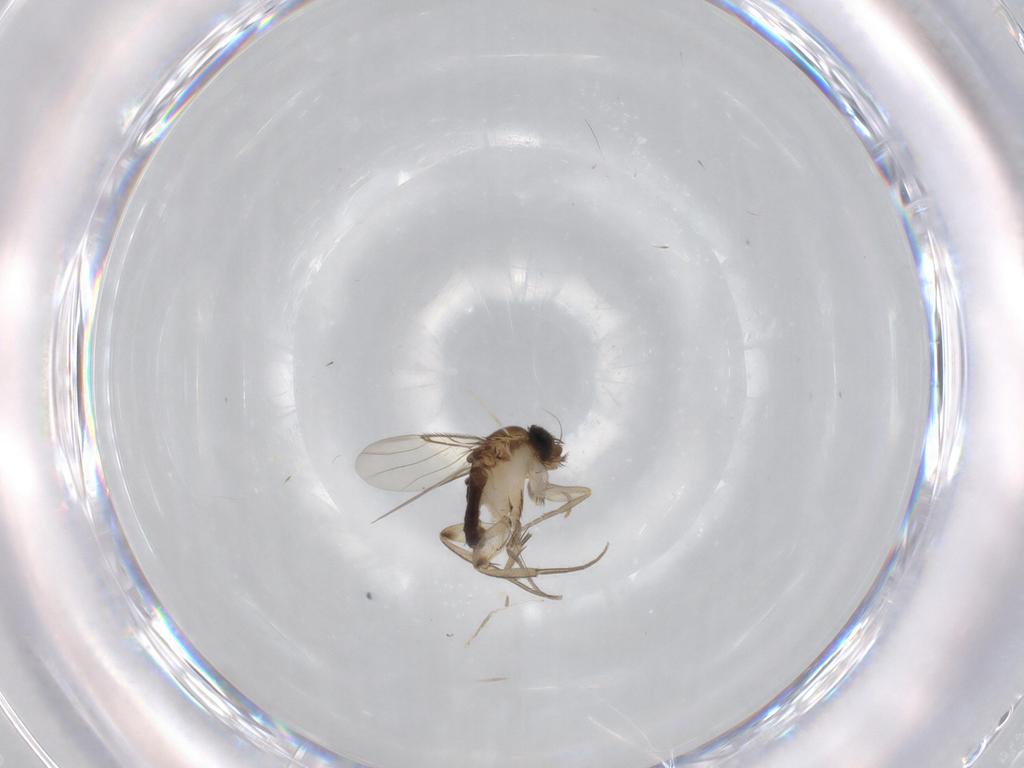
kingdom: Animalia
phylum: Arthropoda
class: Insecta
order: Diptera
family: Phoridae
